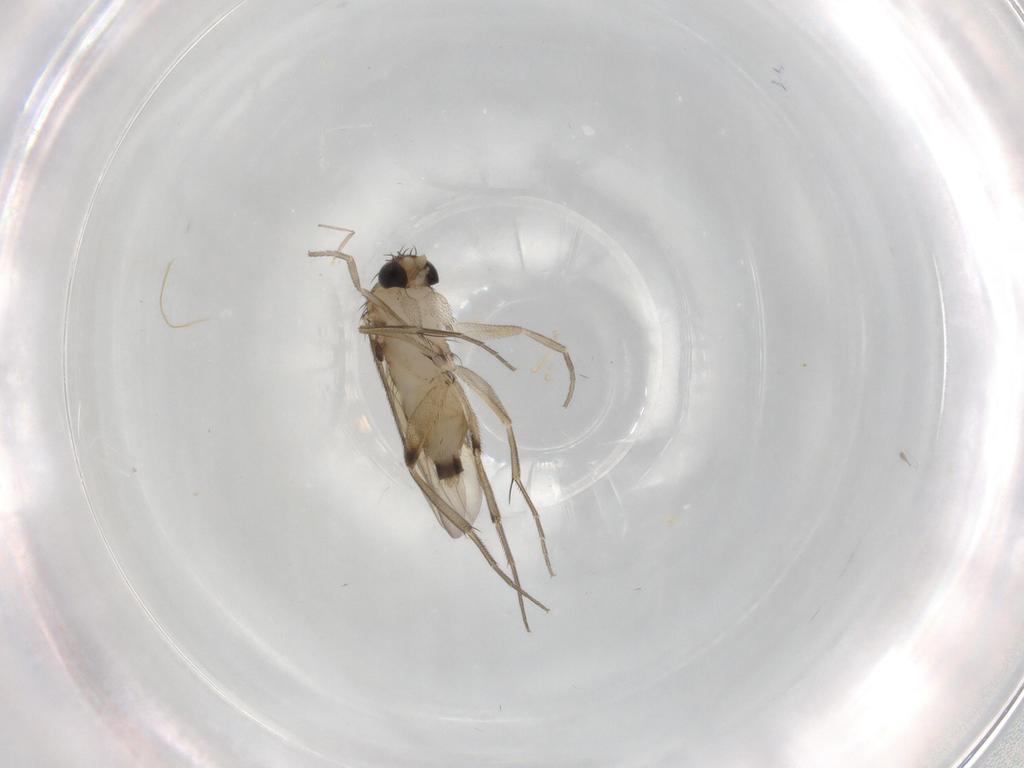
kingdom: Animalia
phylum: Arthropoda
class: Insecta
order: Diptera
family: Phoridae
